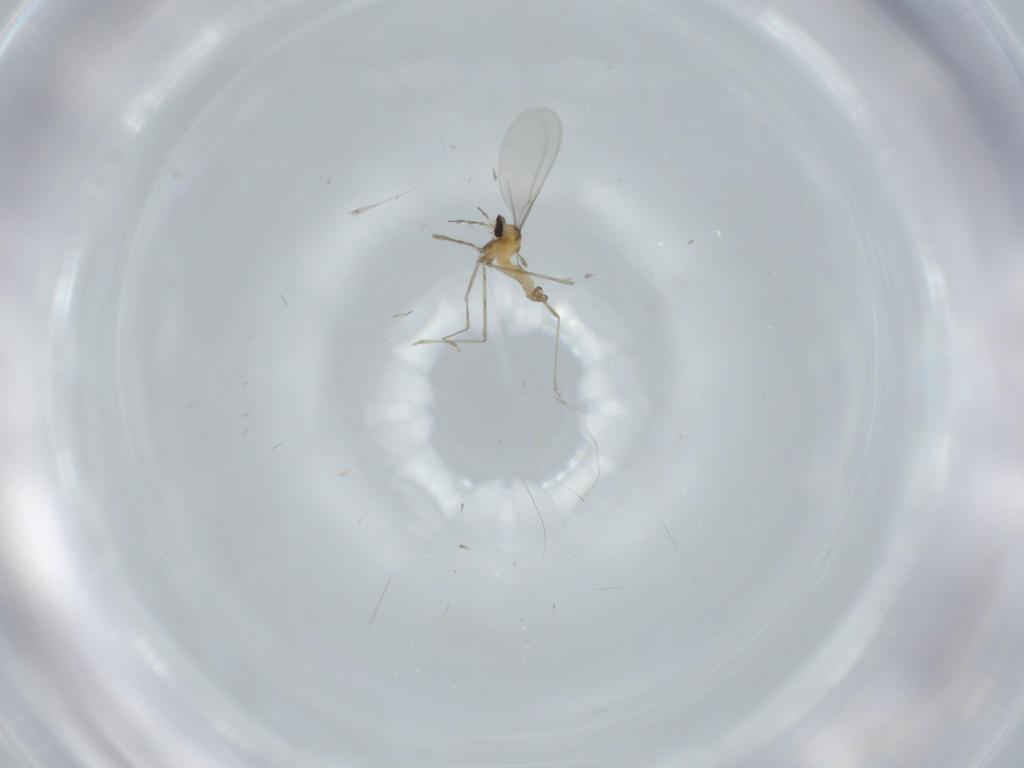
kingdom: Animalia
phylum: Arthropoda
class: Insecta
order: Diptera
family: Cecidomyiidae
